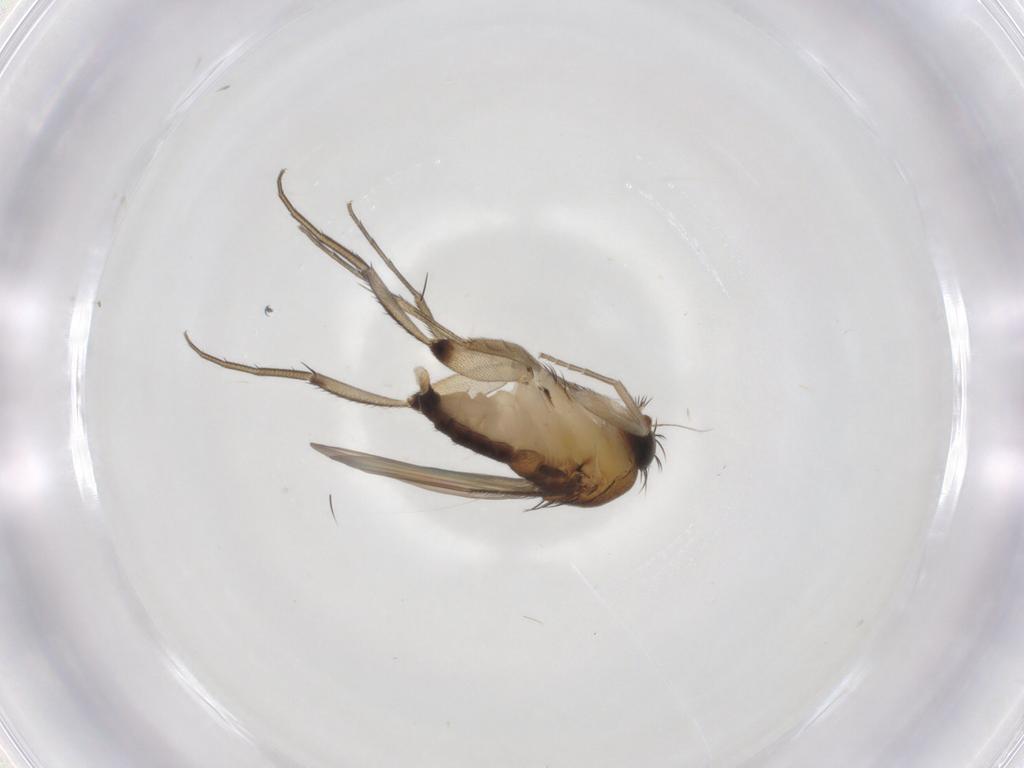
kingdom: Animalia
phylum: Arthropoda
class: Insecta
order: Diptera
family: Phoridae
